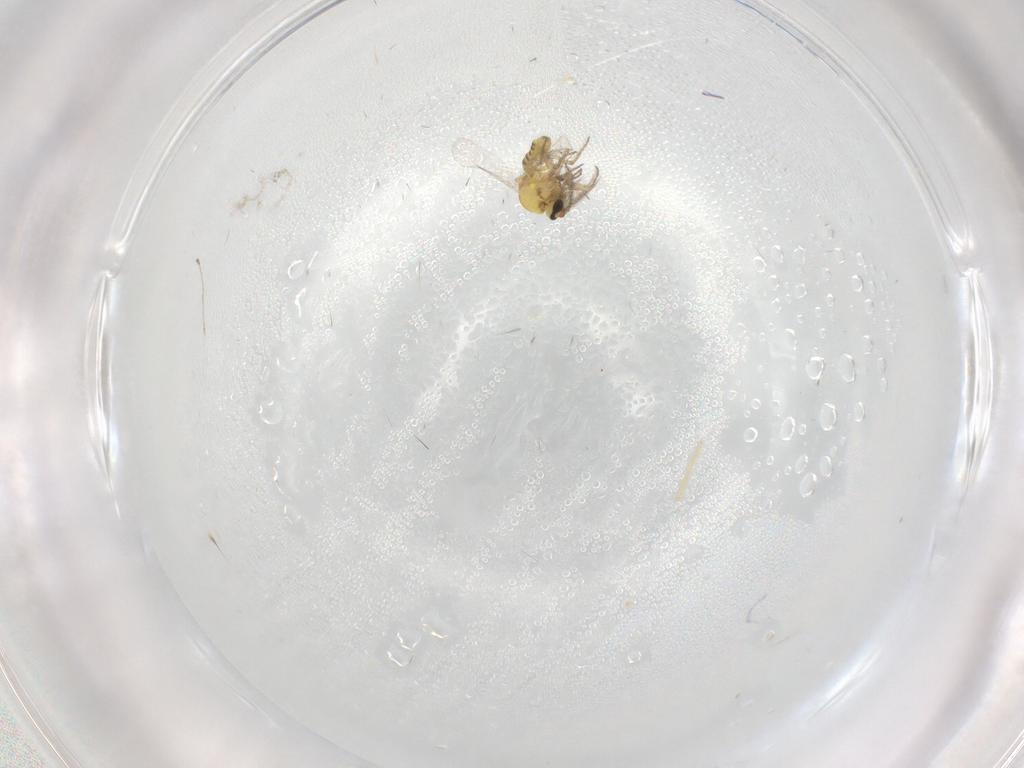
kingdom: Animalia
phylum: Arthropoda
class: Insecta
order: Diptera
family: Ceratopogonidae
